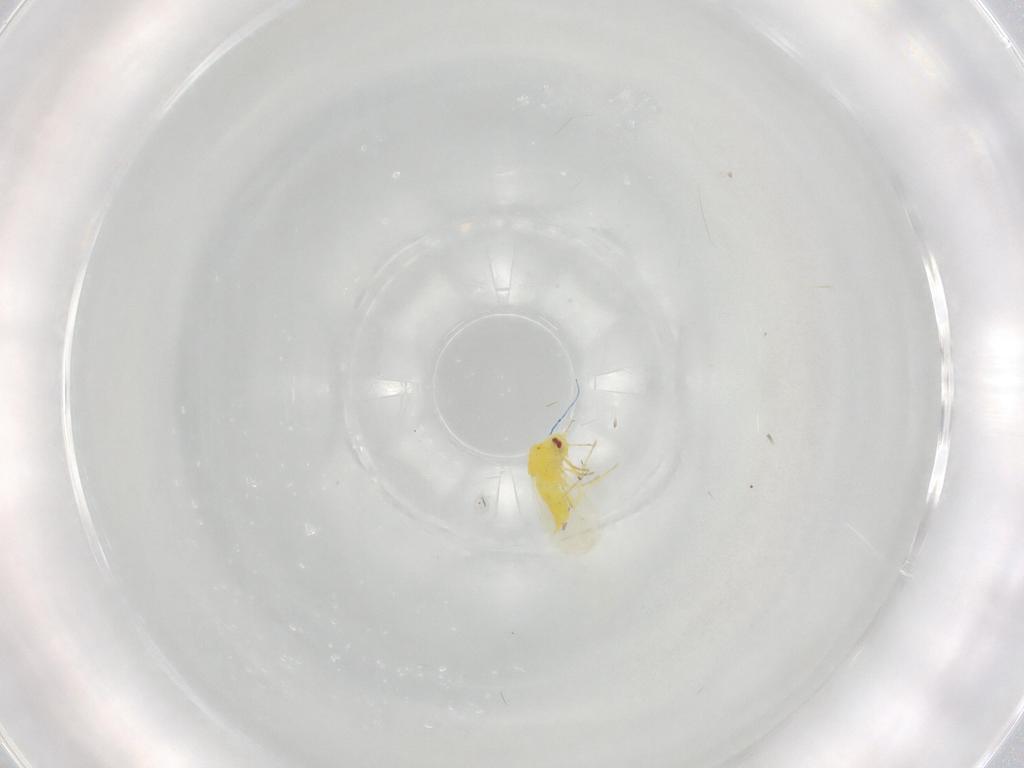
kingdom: Animalia
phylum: Arthropoda
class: Insecta
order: Hemiptera
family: Aleyrodidae
